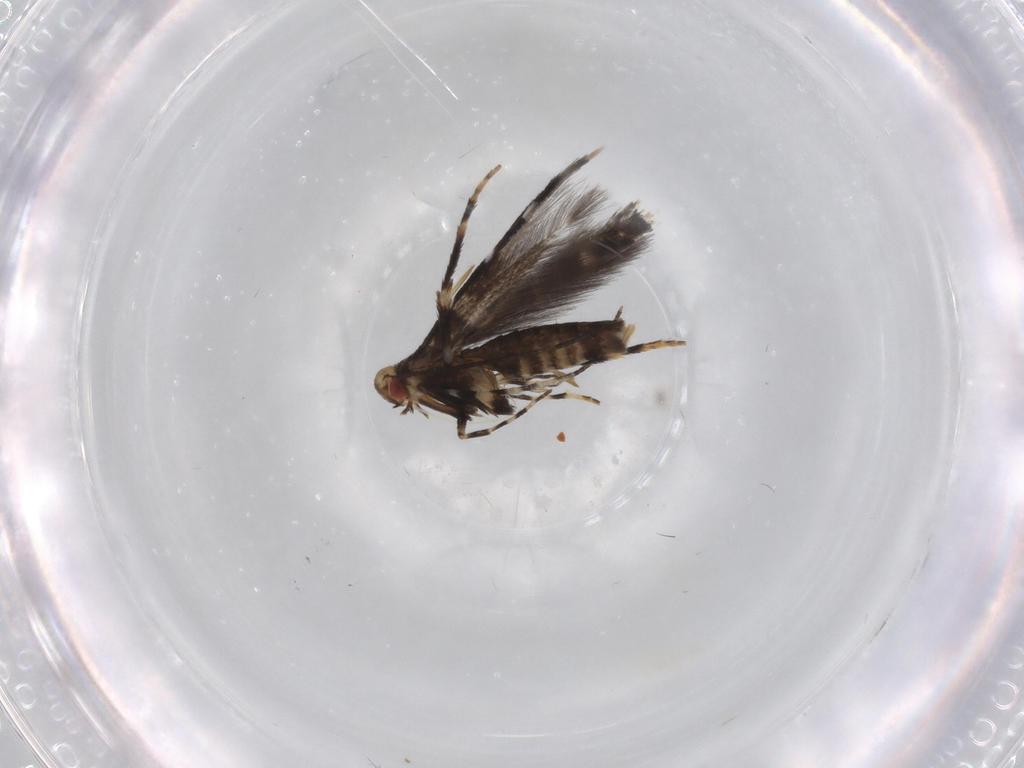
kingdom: Animalia
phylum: Arthropoda
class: Insecta
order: Lepidoptera
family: Gracillariidae
